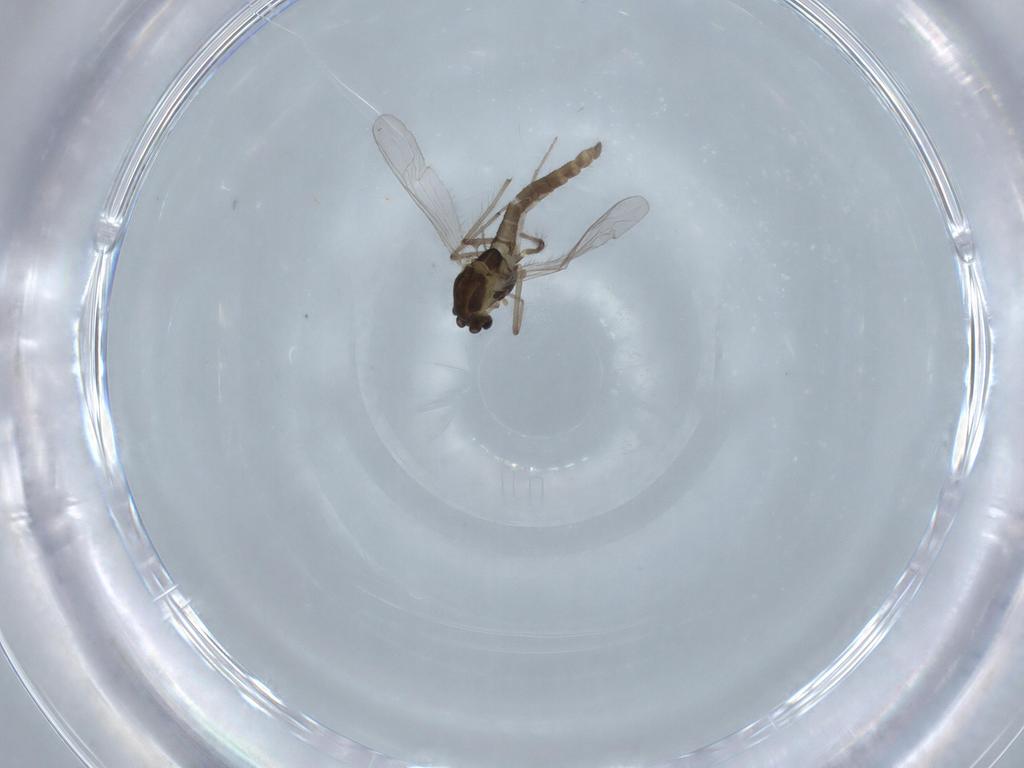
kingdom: Animalia
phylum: Arthropoda
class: Insecta
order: Diptera
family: Chironomidae
